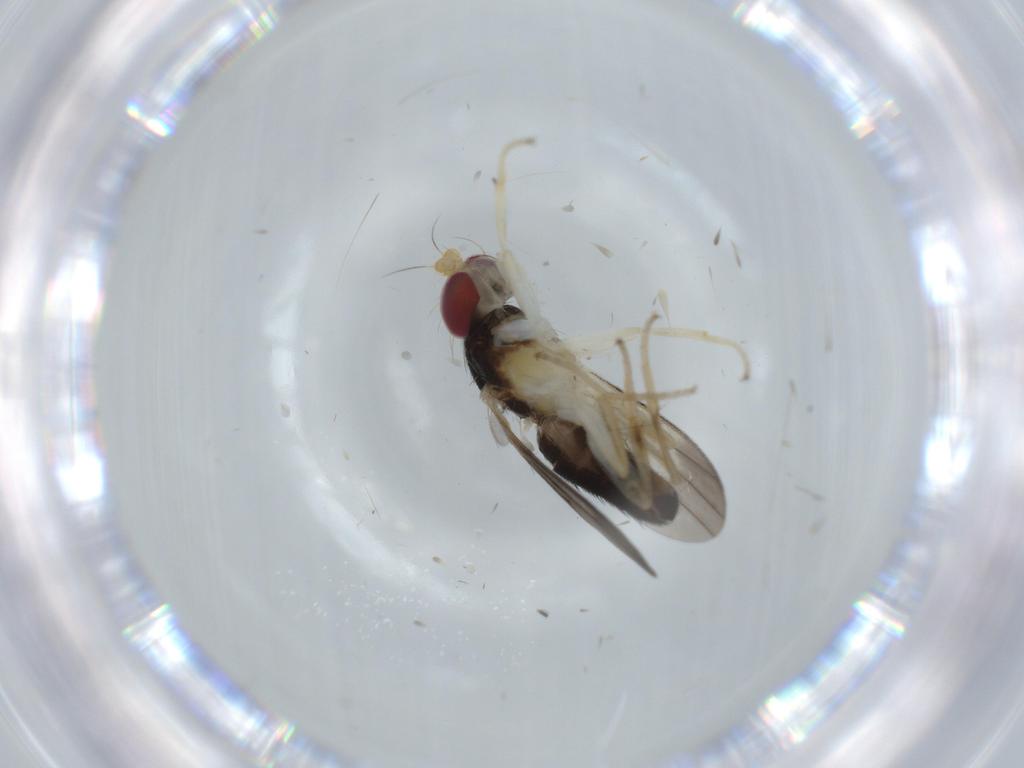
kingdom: Animalia
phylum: Arthropoda
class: Insecta
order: Diptera
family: Clusiidae
